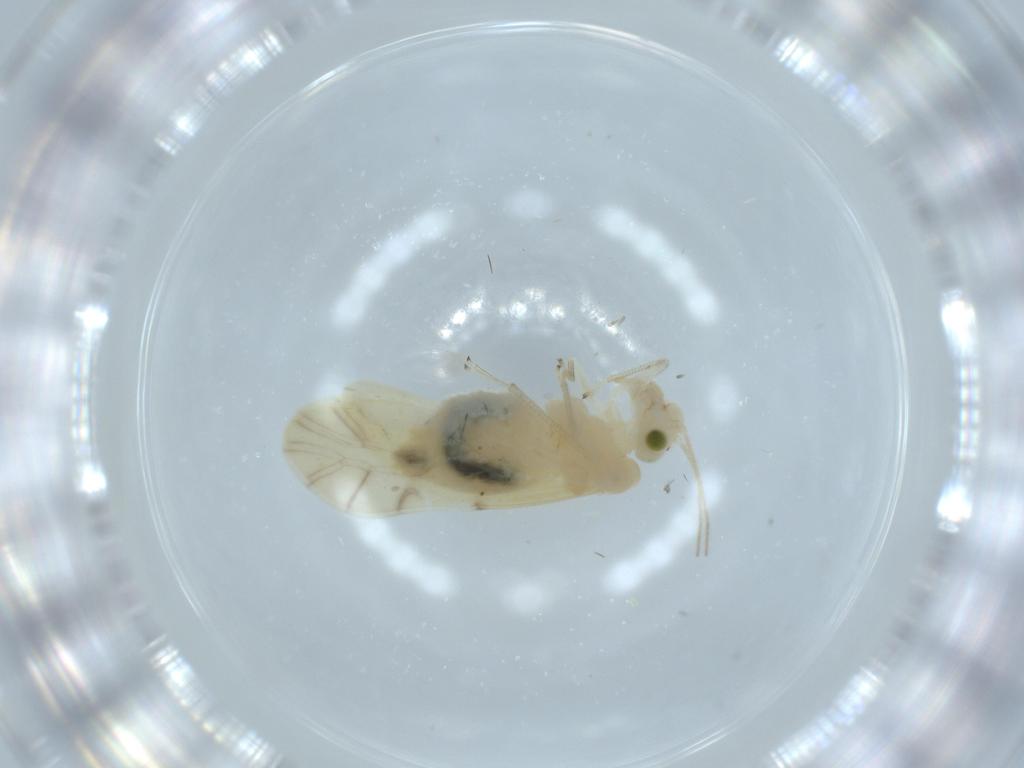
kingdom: Animalia
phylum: Arthropoda
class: Insecta
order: Psocodea
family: Caeciliusidae
